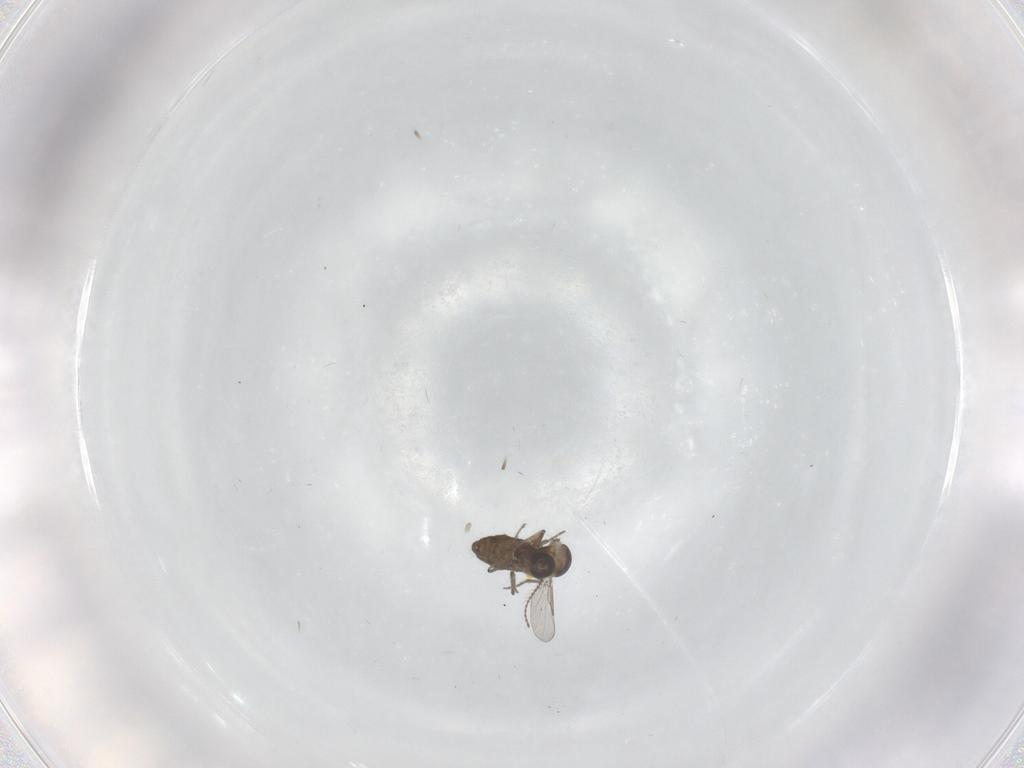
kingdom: Animalia
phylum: Arthropoda
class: Insecta
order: Diptera
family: Ceratopogonidae
